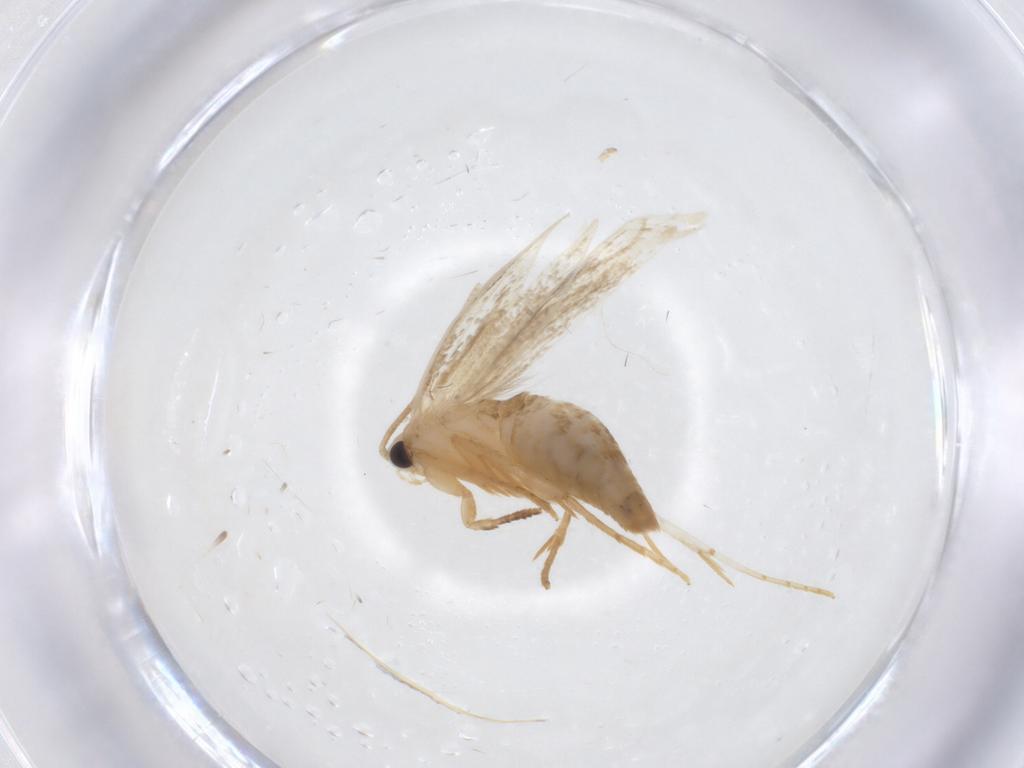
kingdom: Animalia
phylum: Arthropoda
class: Insecta
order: Lepidoptera
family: Tineidae
